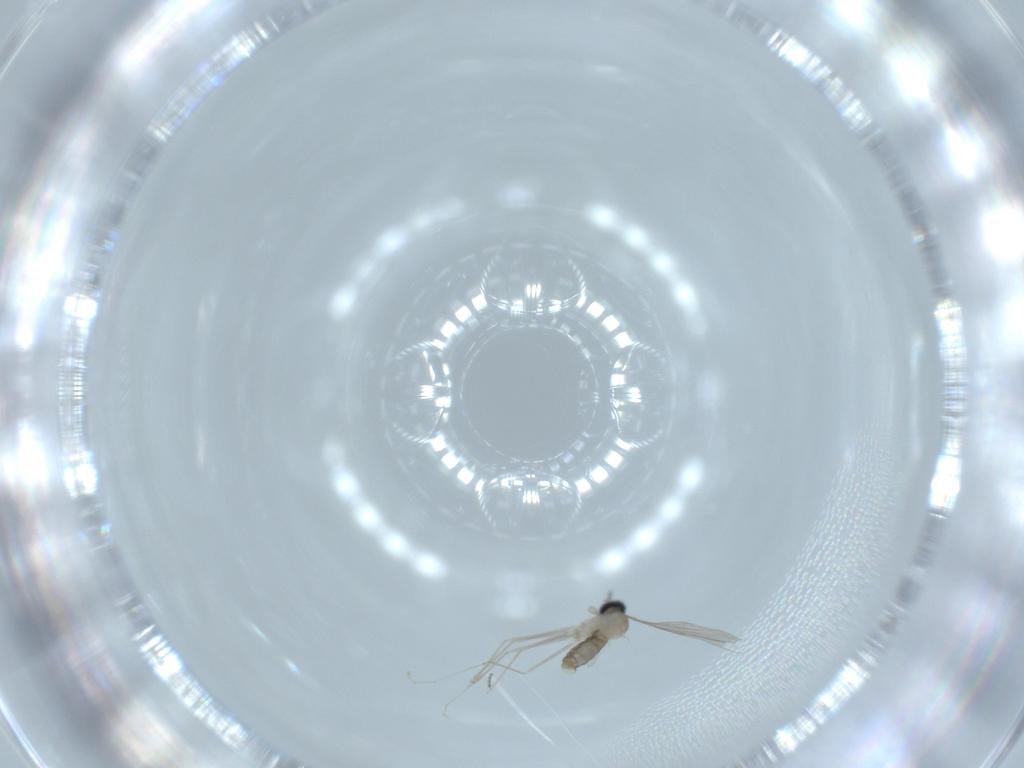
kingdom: Animalia
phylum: Arthropoda
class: Insecta
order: Diptera
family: Cecidomyiidae
